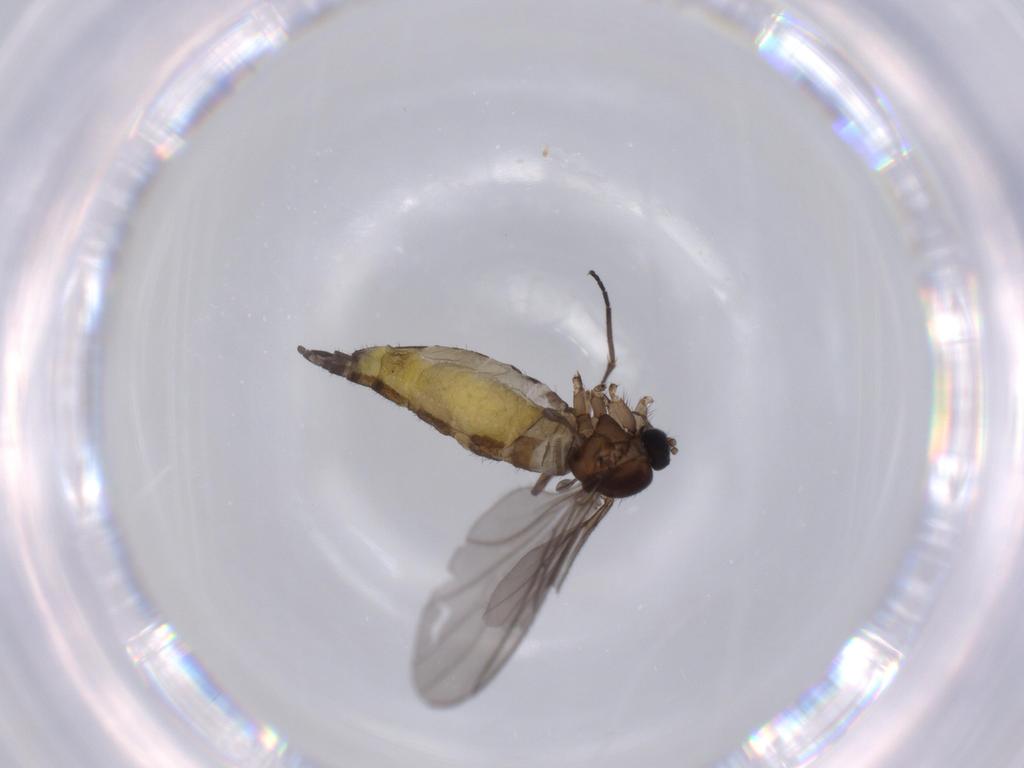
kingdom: Animalia
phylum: Arthropoda
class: Insecta
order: Diptera
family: Sciaridae
